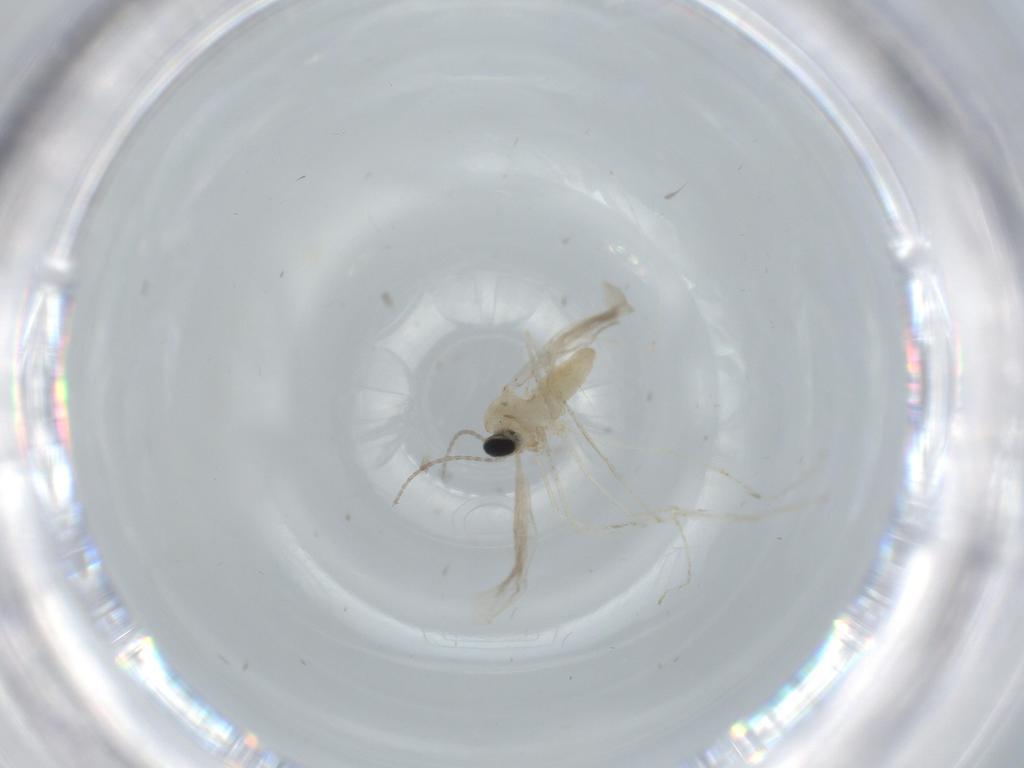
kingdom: Animalia
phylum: Arthropoda
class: Insecta
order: Diptera
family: Cecidomyiidae
